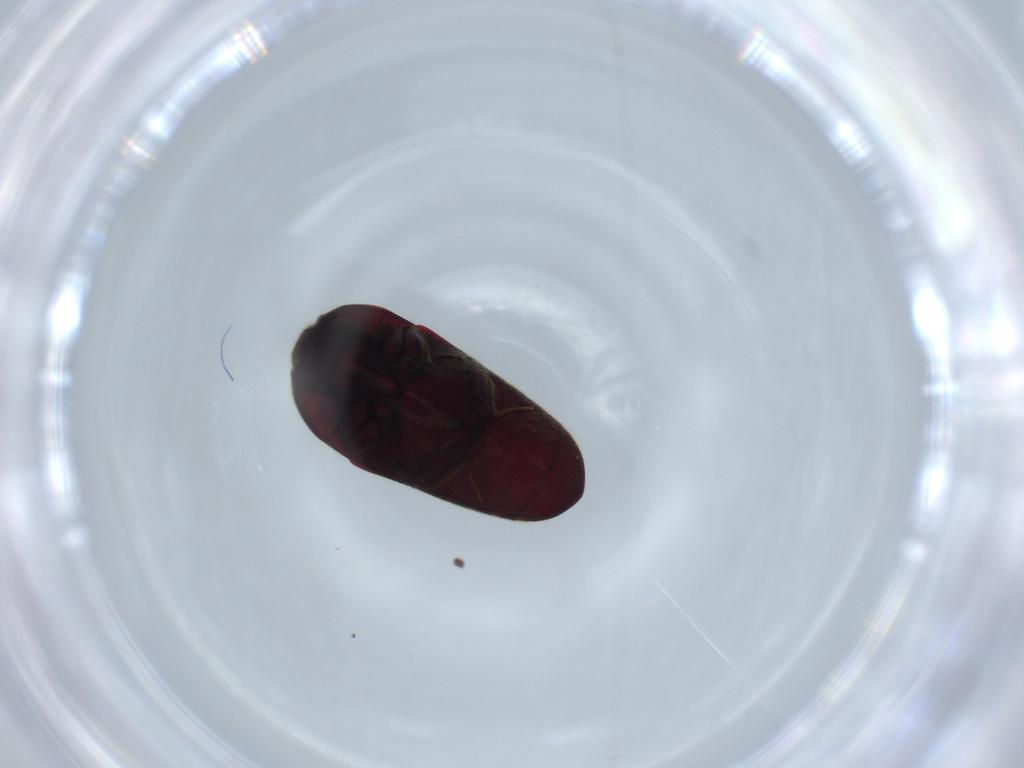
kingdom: Animalia
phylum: Arthropoda
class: Insecta
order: Coleoptera
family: Throscidae
